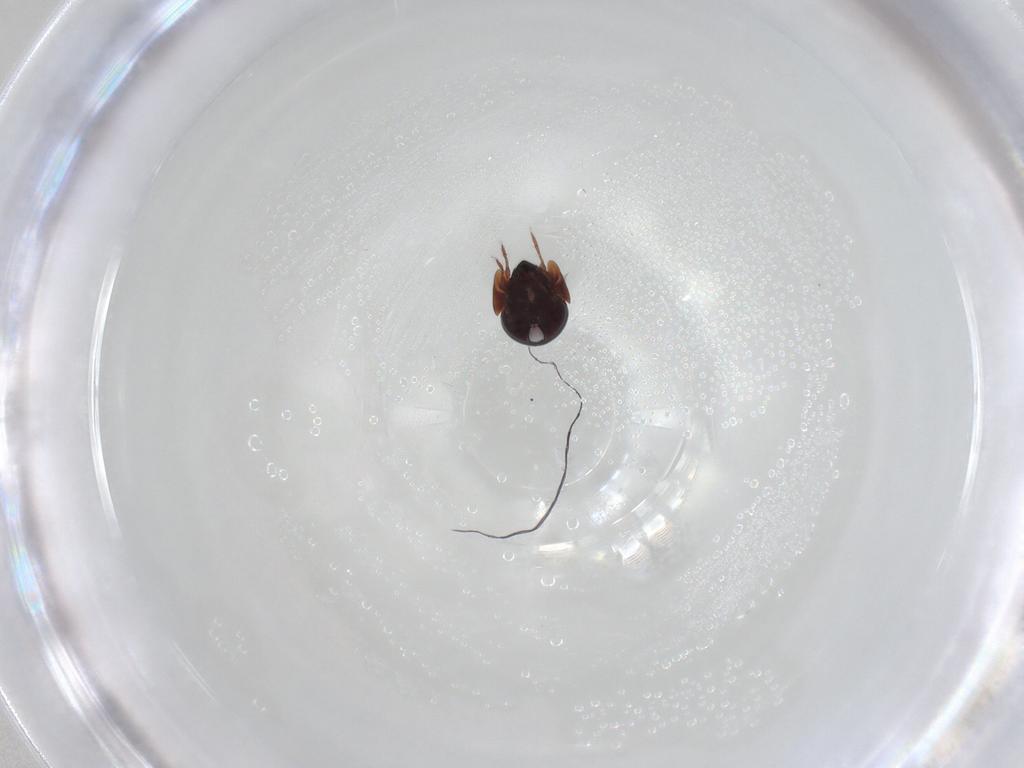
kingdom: Animalia
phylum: Arthropoda
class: Arachnida
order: Sarcoptiformes
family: Galumnidae
